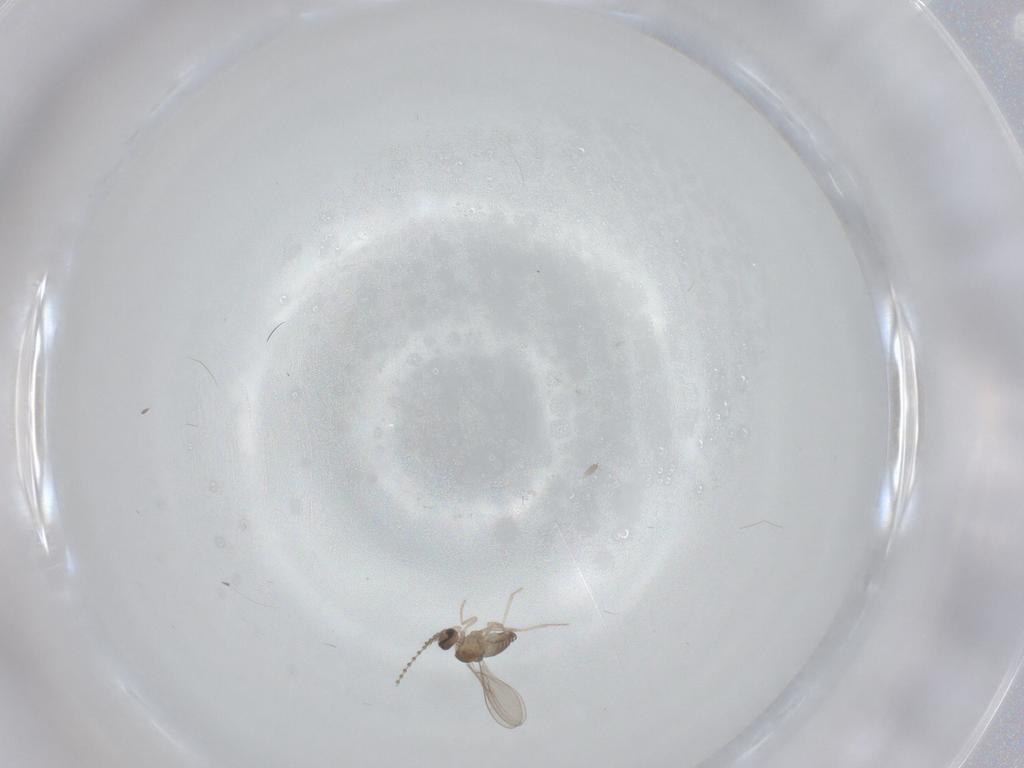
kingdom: Animalia
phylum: Arthropoda
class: Insecta
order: Diptera
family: Cecidomyiidae
